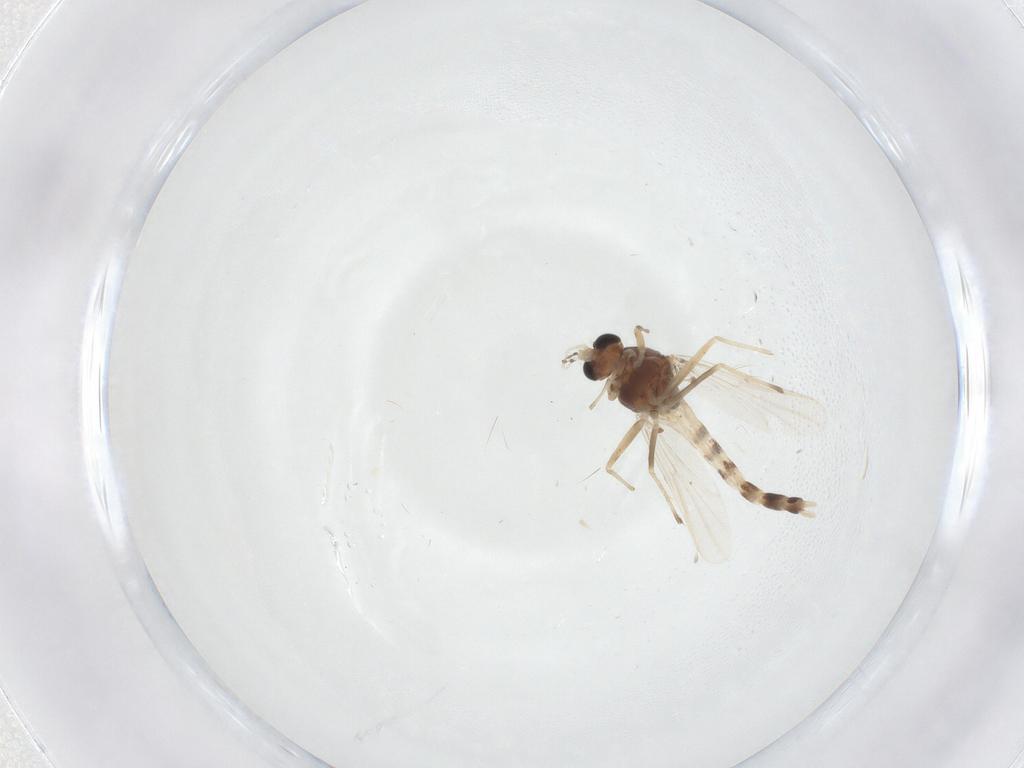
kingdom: Animalia
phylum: Arthropoda
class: Insecta
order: Diptera
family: Chironomidae
